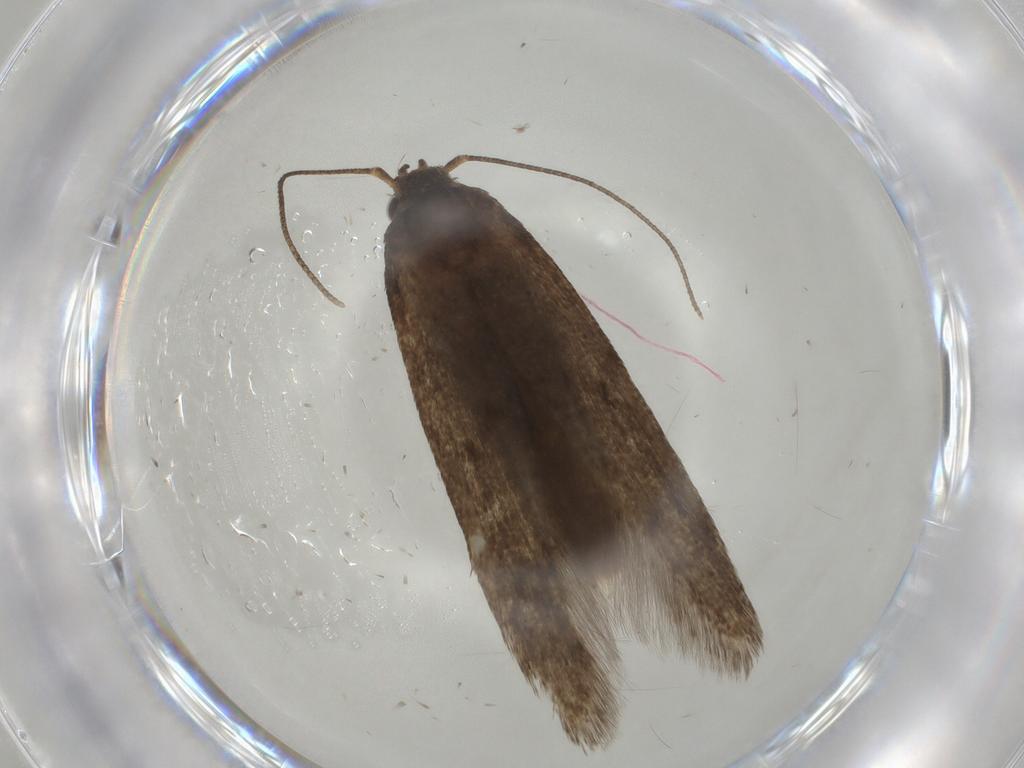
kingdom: Animalia
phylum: Arthropoda
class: Insecta
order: Lepidoptera
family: Blastobasidae
